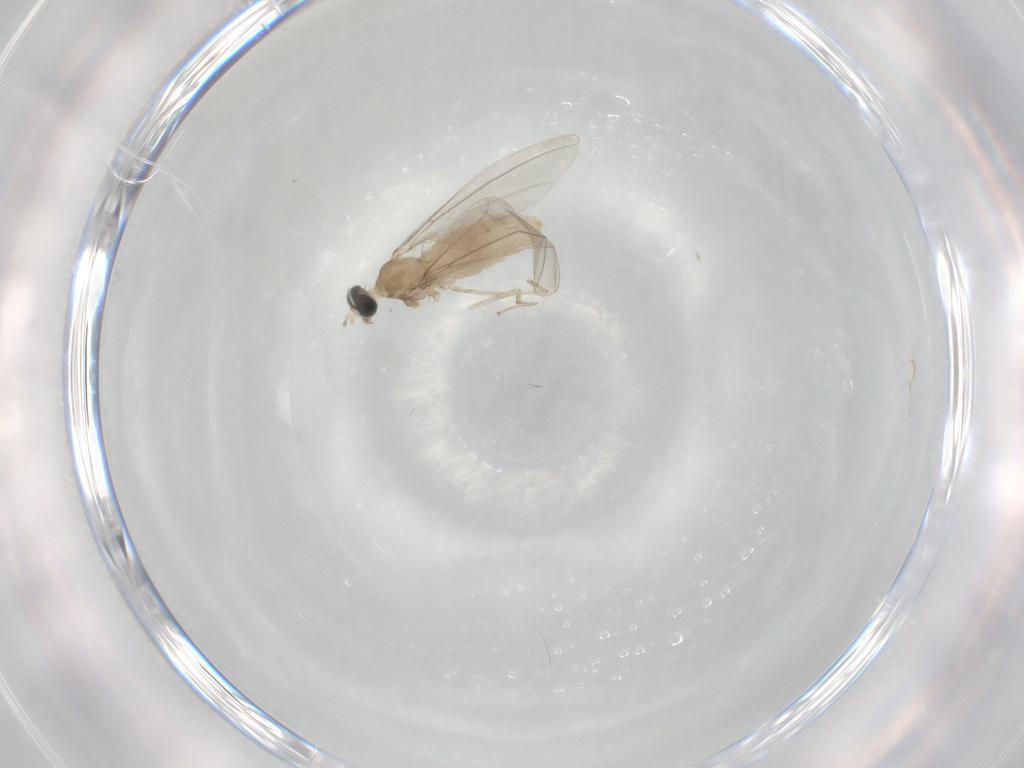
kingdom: Animalia
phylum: Arthropoda
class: Insecta
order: Diptera
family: Cecidomyiidae
